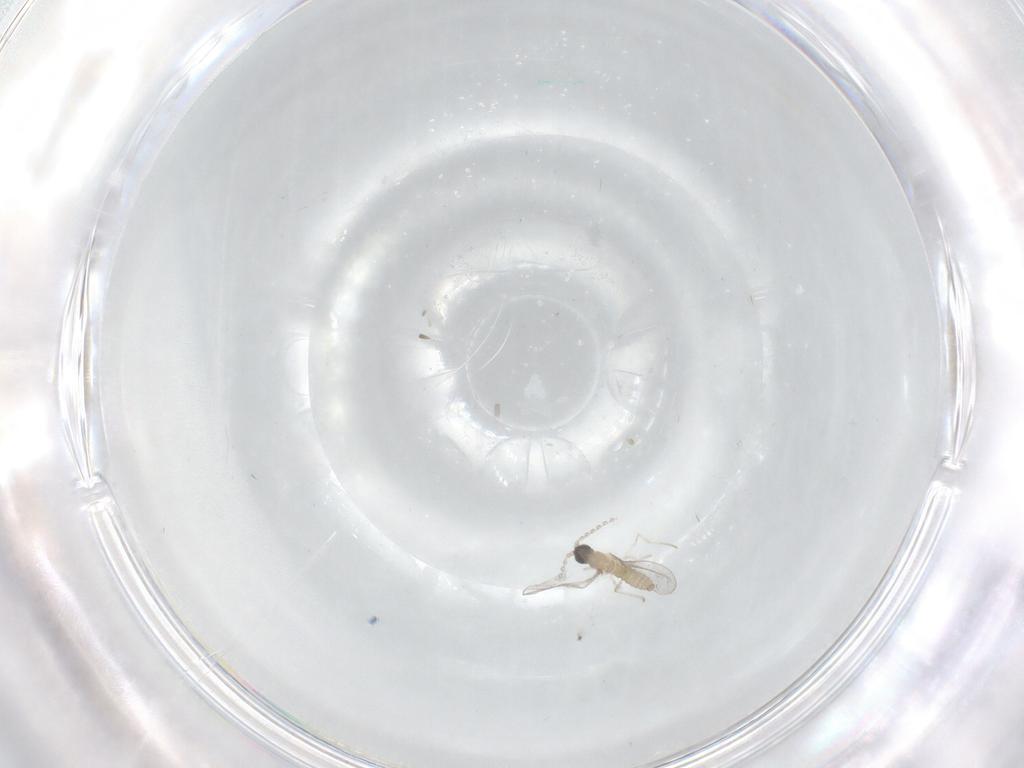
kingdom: Animalia
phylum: Arthropoda
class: Insecta
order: Diptera
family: Cecidomyiidae
